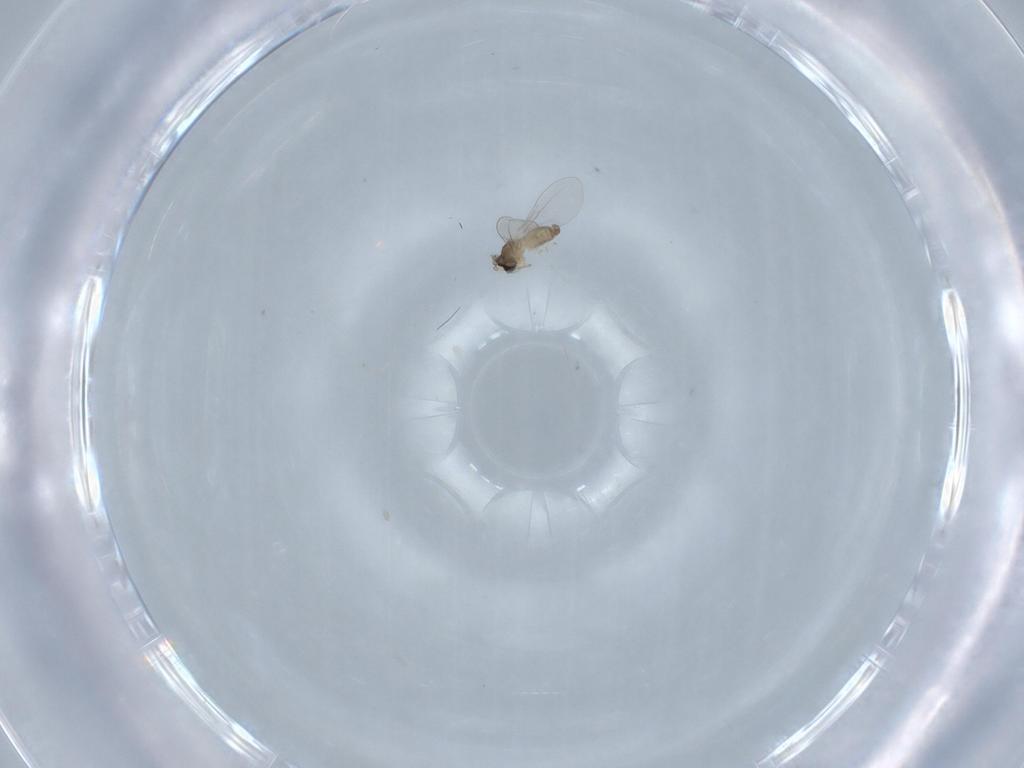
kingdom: Animalia
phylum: Arthropoda
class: Insecta
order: Diptera
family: Cecidomyiidae
